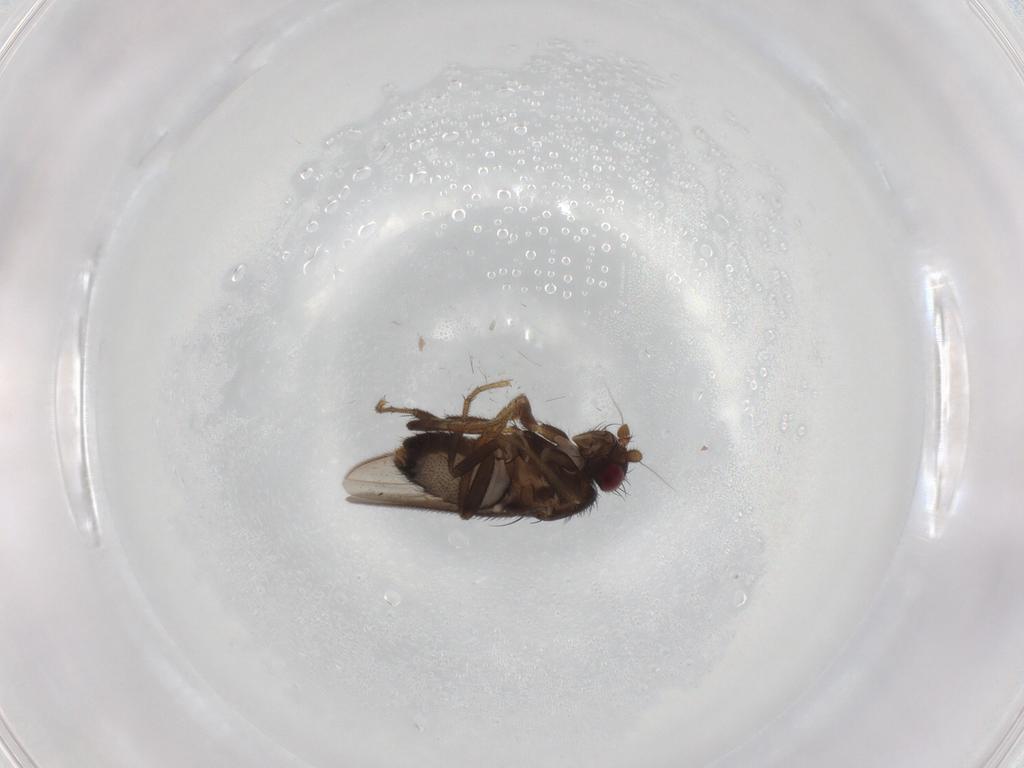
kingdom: Animalia
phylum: Arthropoda
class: Insecta
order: Diptera
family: Sphaeroceridae
